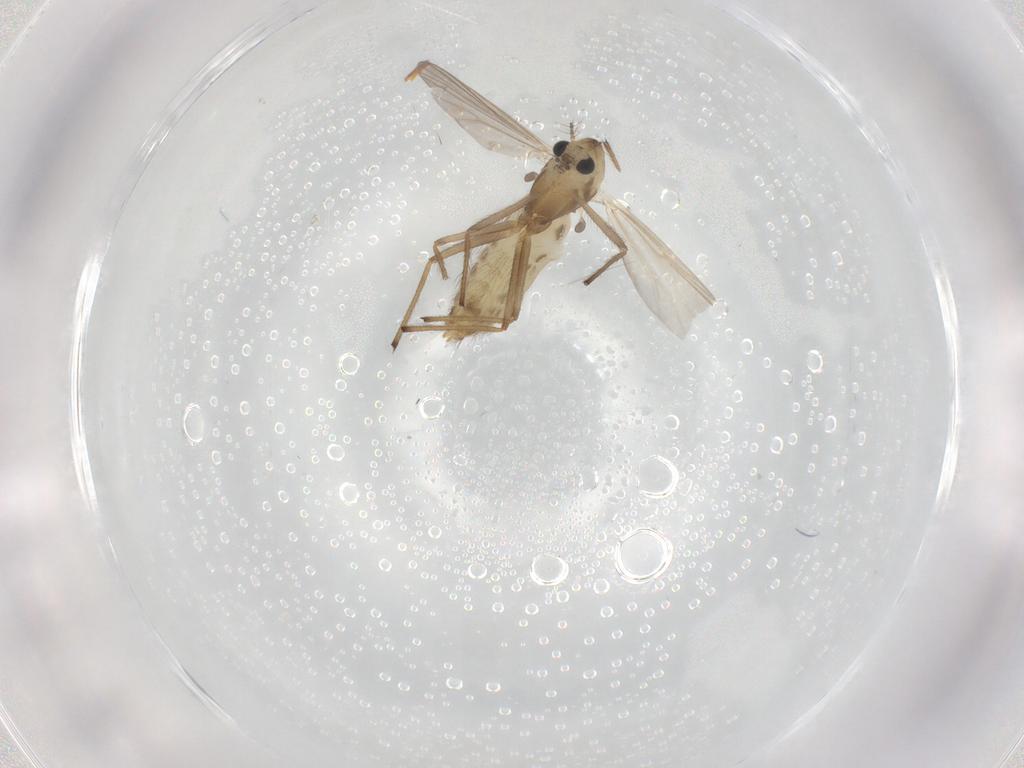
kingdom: Animalia
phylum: Arthropoda
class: Insecta
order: Diptera
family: Chironomidae
